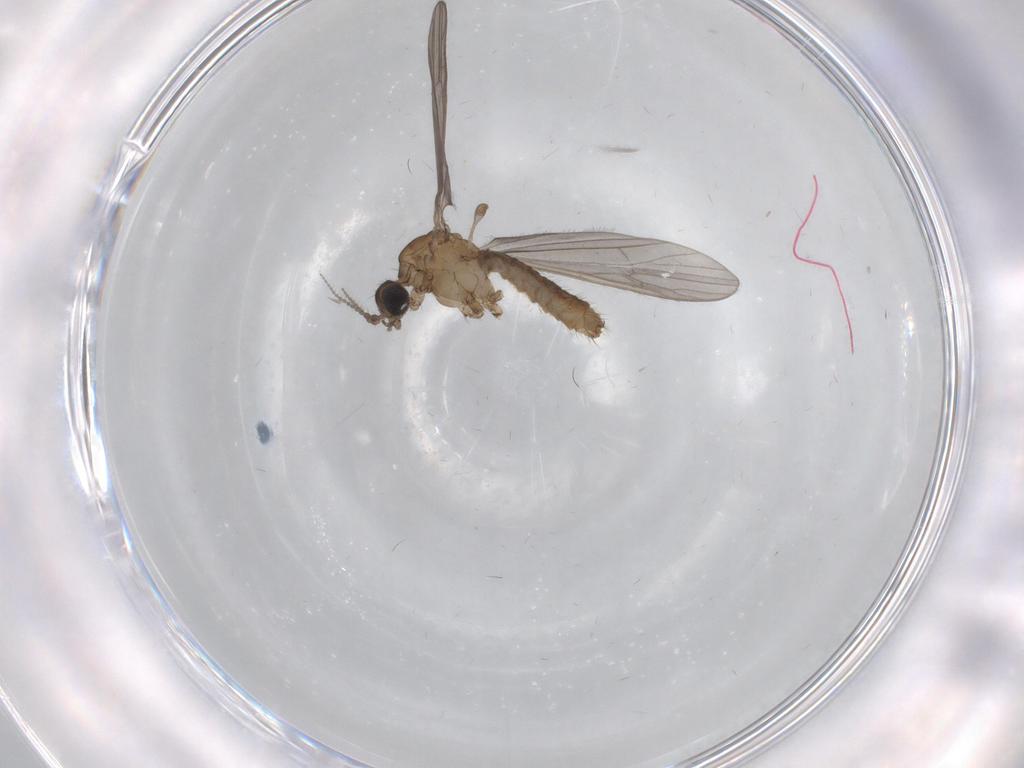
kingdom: Animalia
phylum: Arthropoda
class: Insecta
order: Diptera
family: Limoniidae
